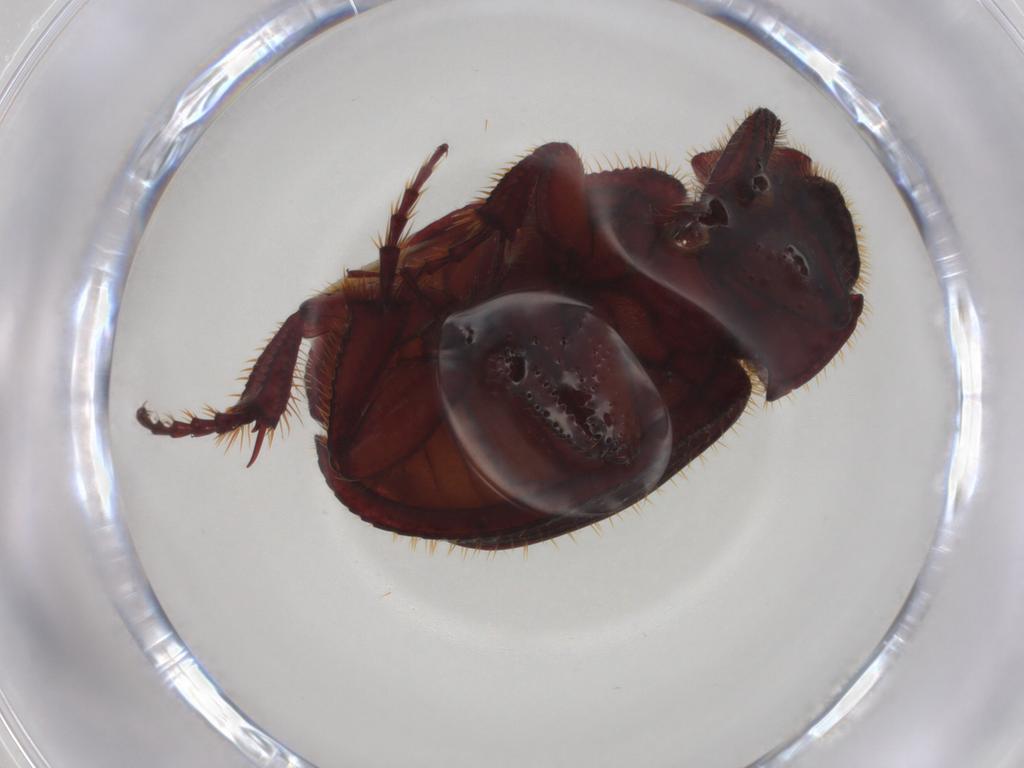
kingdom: Animalia
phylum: Arthropoda
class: Insecta
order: Coleoptera
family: Hybosoridae
